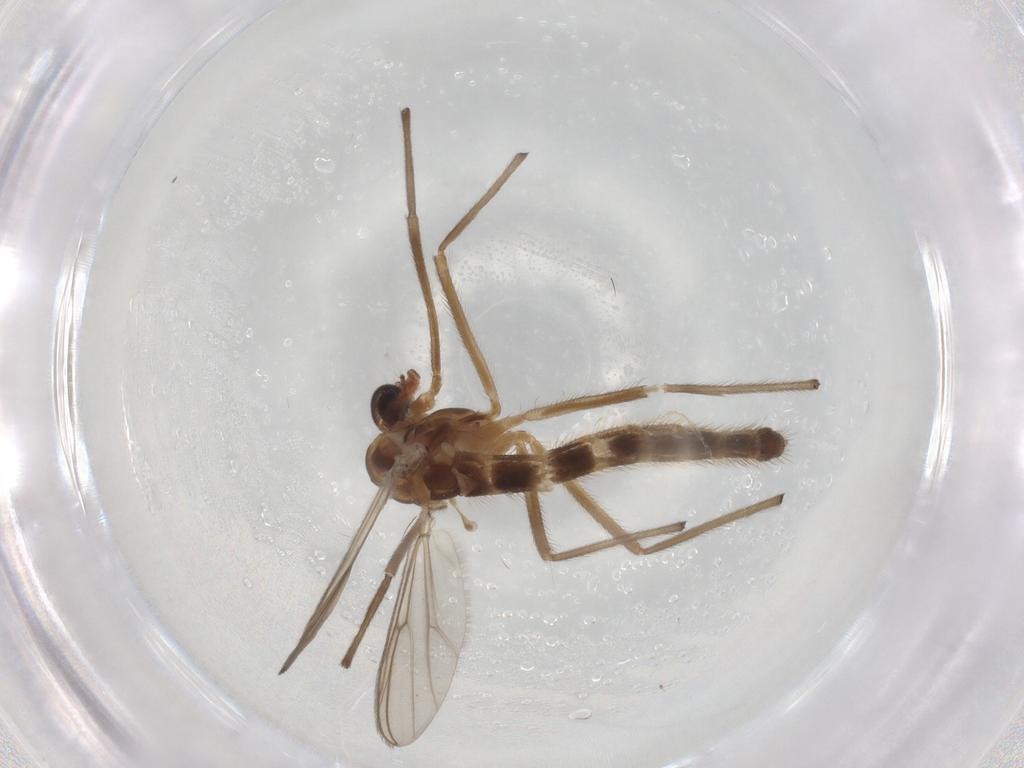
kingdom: Animalia
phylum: Arthropoda
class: Insecta
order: Diptera
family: Chironomidae
